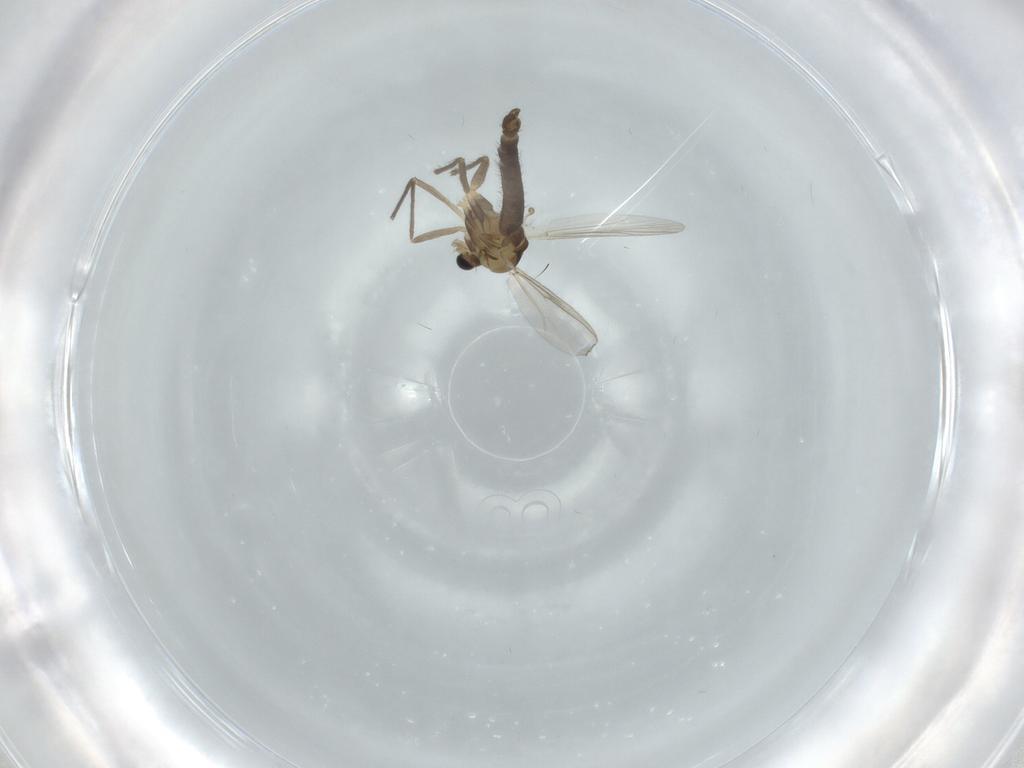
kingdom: Animalia
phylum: Arthropoda
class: Insecta
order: Diptera
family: Chironomidae
